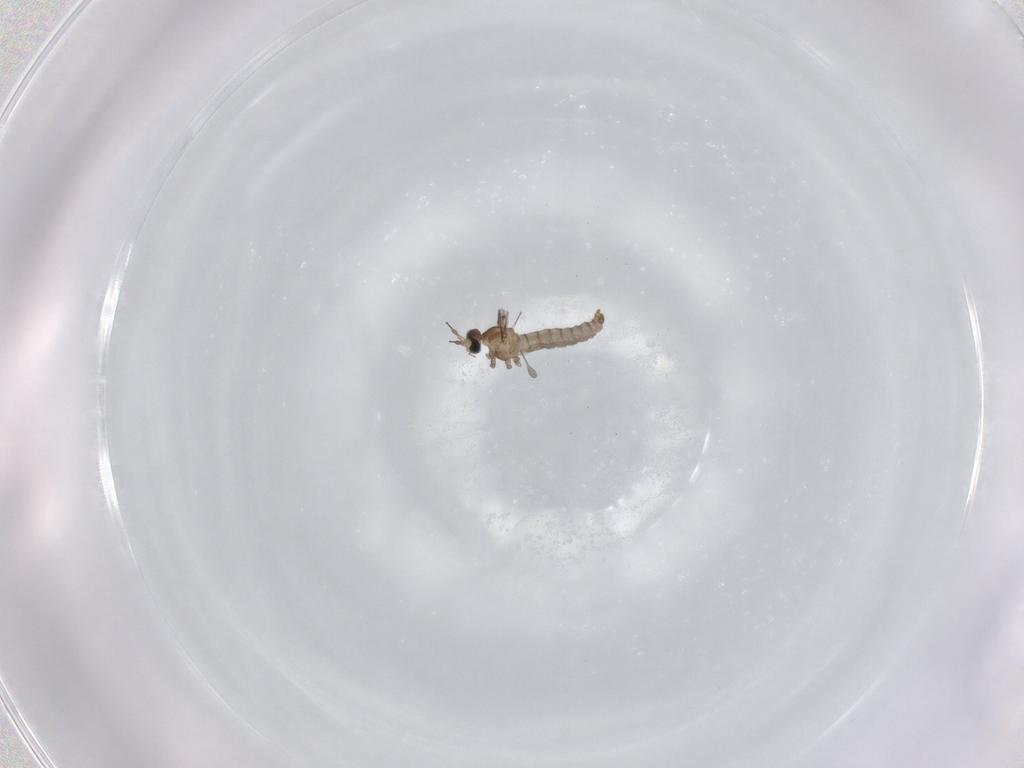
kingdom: Animalia
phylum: Arthropoda
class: Insecta
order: Diptera
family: Cecidomyiidae
